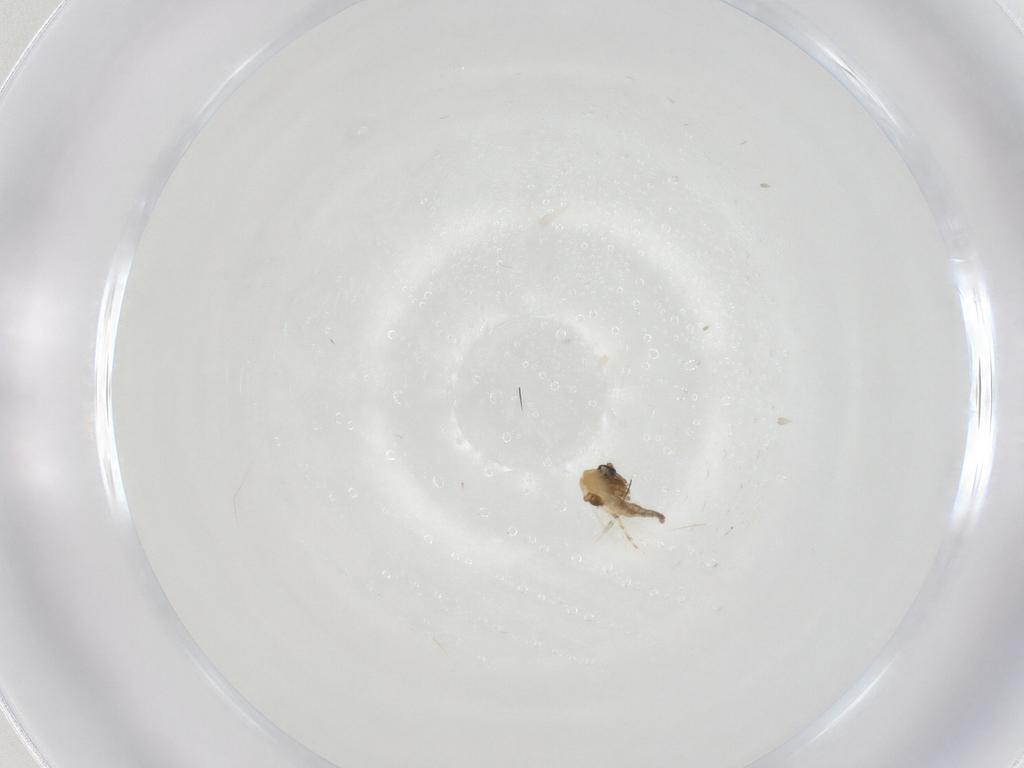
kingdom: Animalia
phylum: Arthropoda
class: Insecta
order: Diptera
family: Ceratopogonidae
